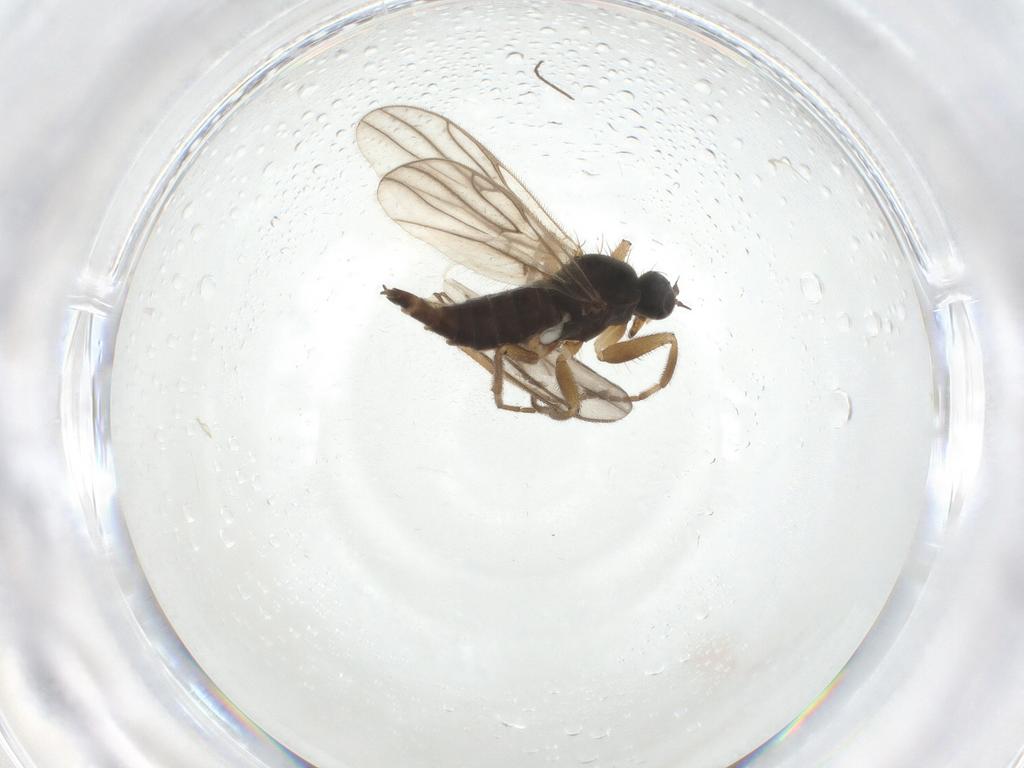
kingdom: Animalia
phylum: Arthropoda
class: Insecta
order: Diptera
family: Hybotidae
